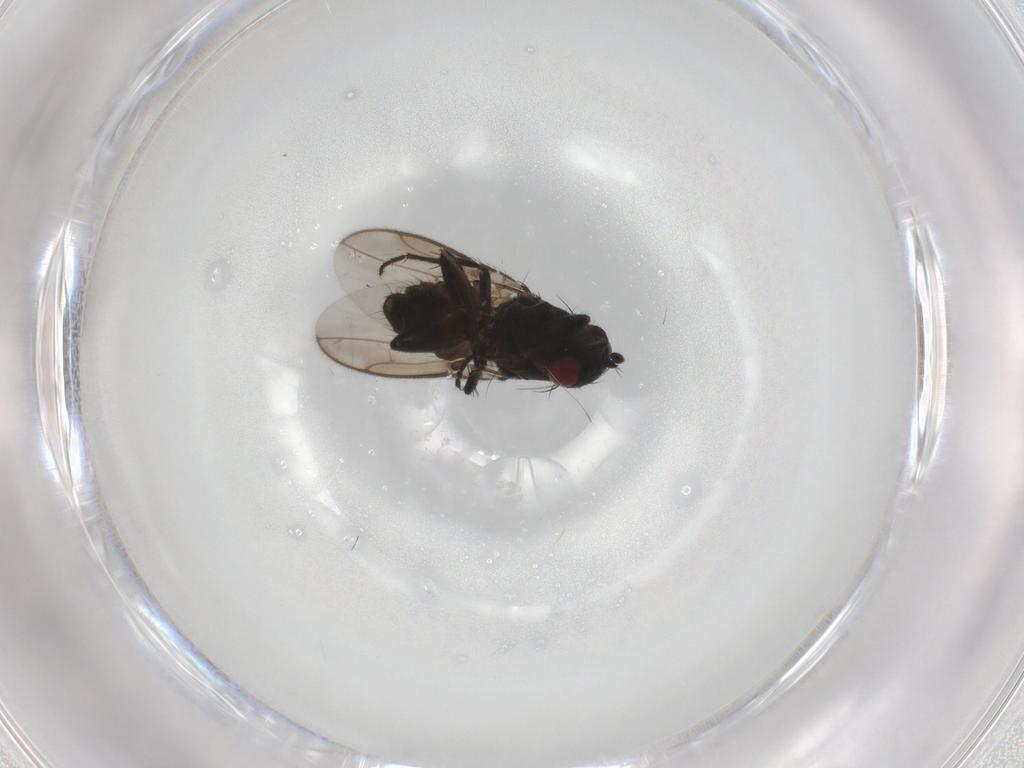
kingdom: Animalia
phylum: Arthropoda
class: Insecta
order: Diptera
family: Sphaeroceridae
